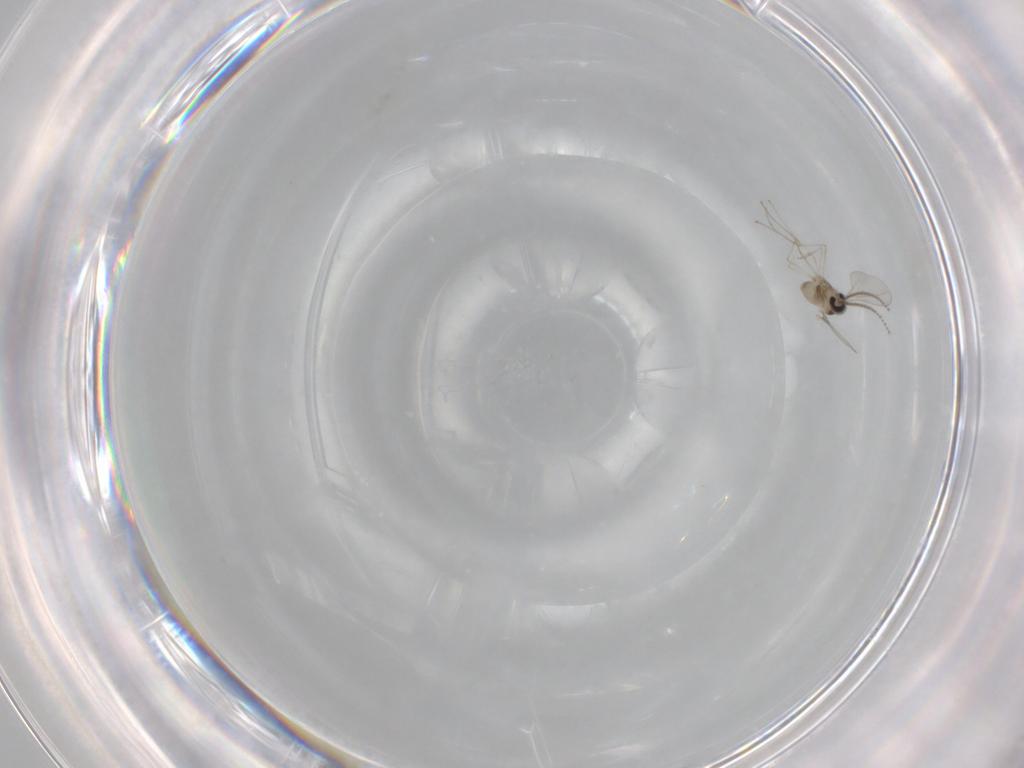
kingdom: Animalia
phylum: Arthropoda
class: Insecta
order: Diptera
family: Cecidomyiidae
